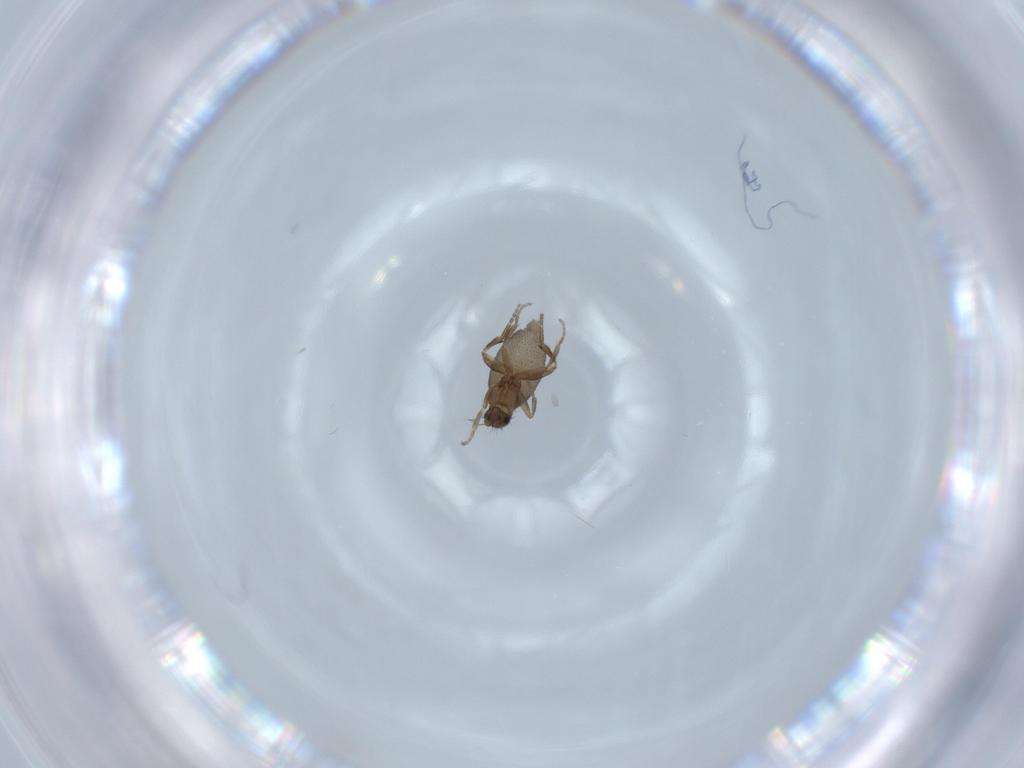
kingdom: Animalia
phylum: Arthropoda
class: Insecta
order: Diptera
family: Phoridae
